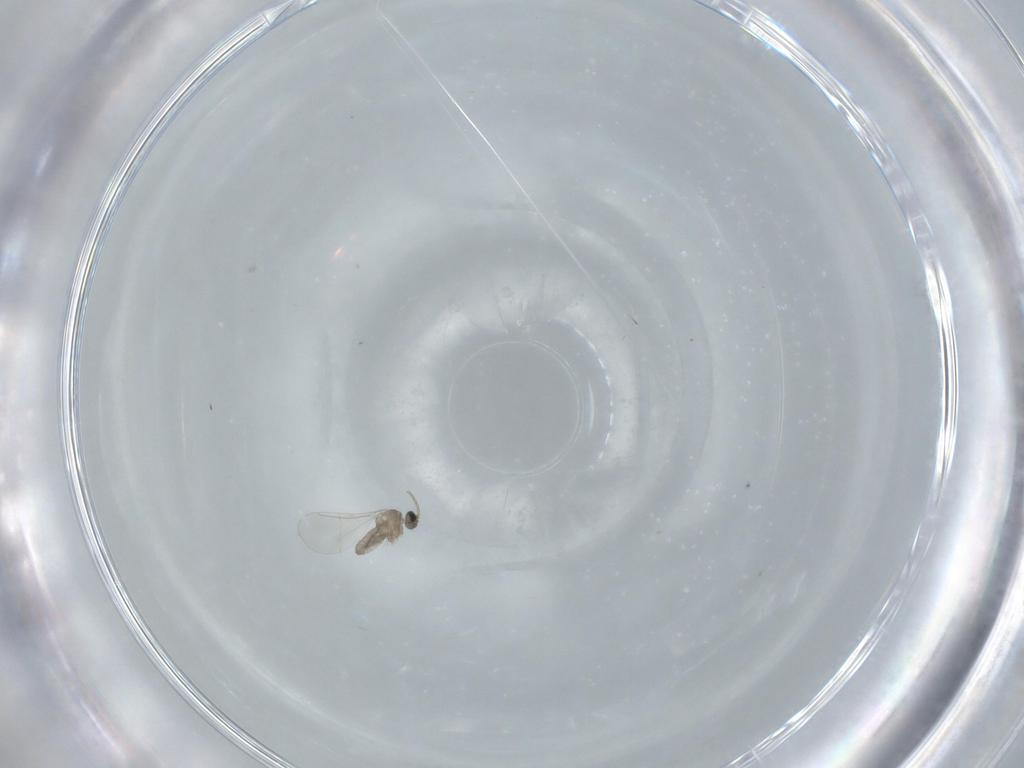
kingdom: Animalia
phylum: Arthropoda
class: Insecta
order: Diptera
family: Cecidomyiidae
